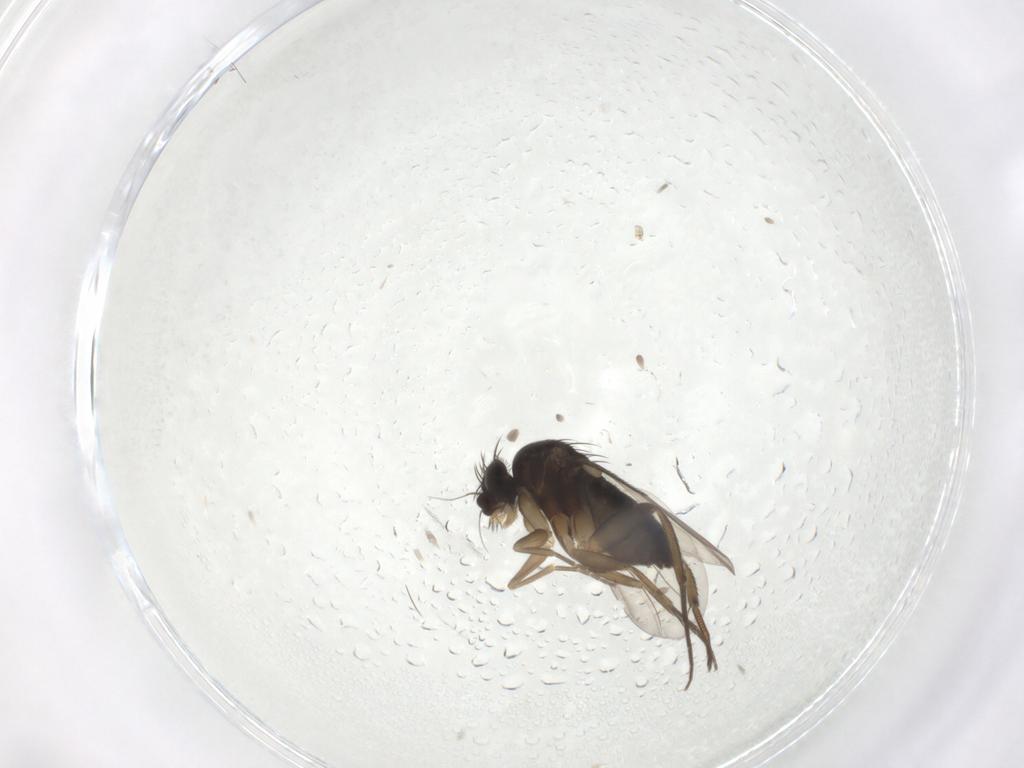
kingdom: Animalia
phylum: Arthropoda
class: Insecta
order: Diptera
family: Phoridae
